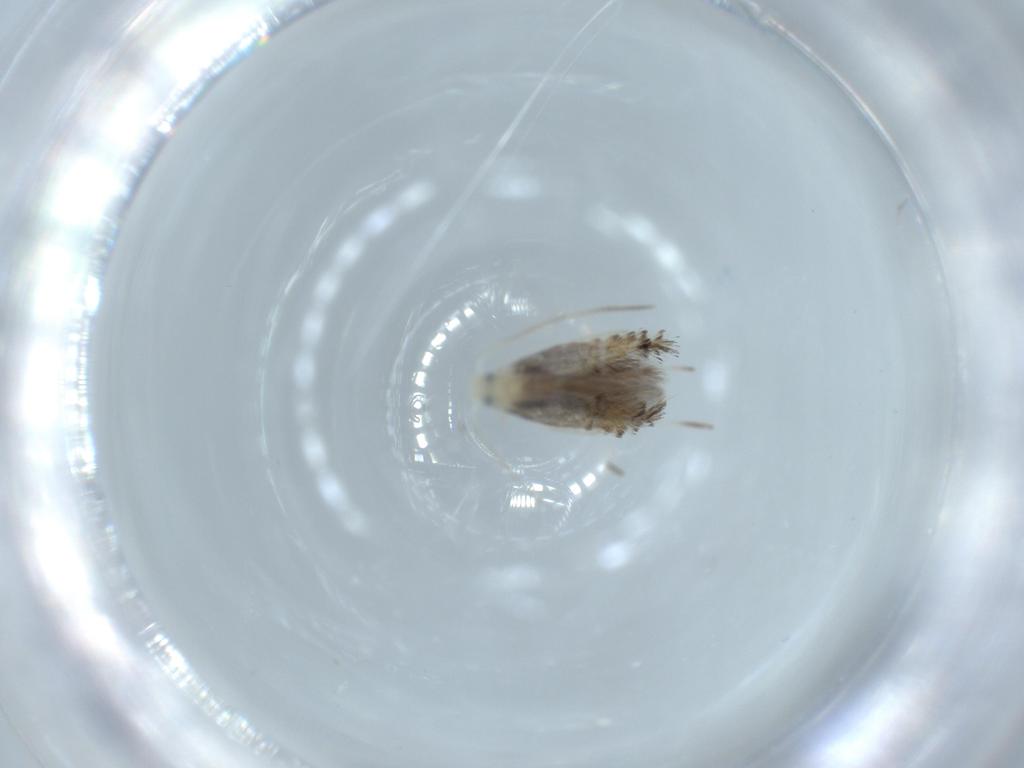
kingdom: Animalia
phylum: Arthropoda
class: Insecta
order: Lepidoptera
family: Nepticulidae
